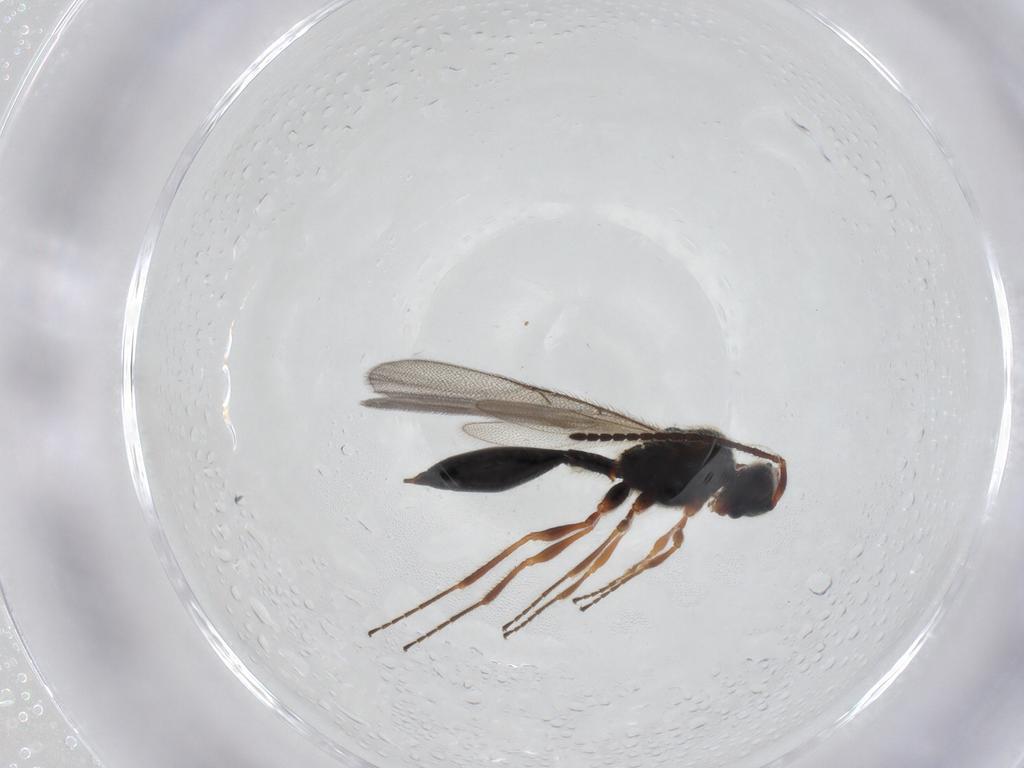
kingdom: Animalia
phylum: Arthropoda
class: Insecta
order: Hymenoptera
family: Diapriidae
